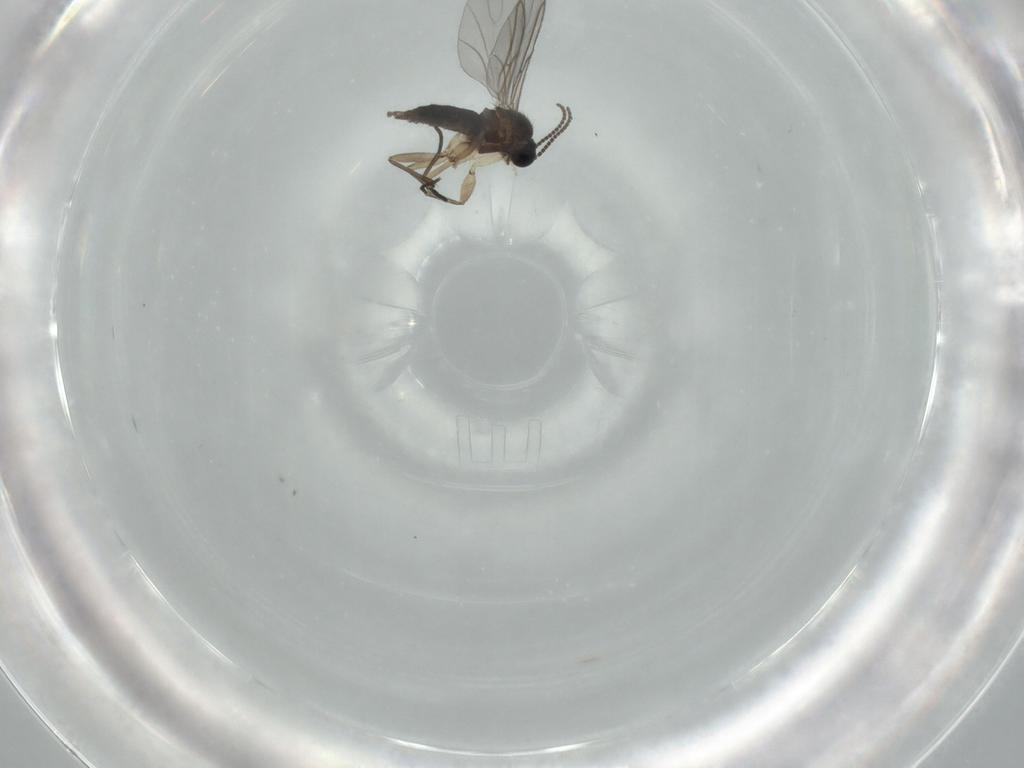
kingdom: Animalia
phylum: Arthropoda
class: Insecta
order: Diptera
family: Sciaridae
